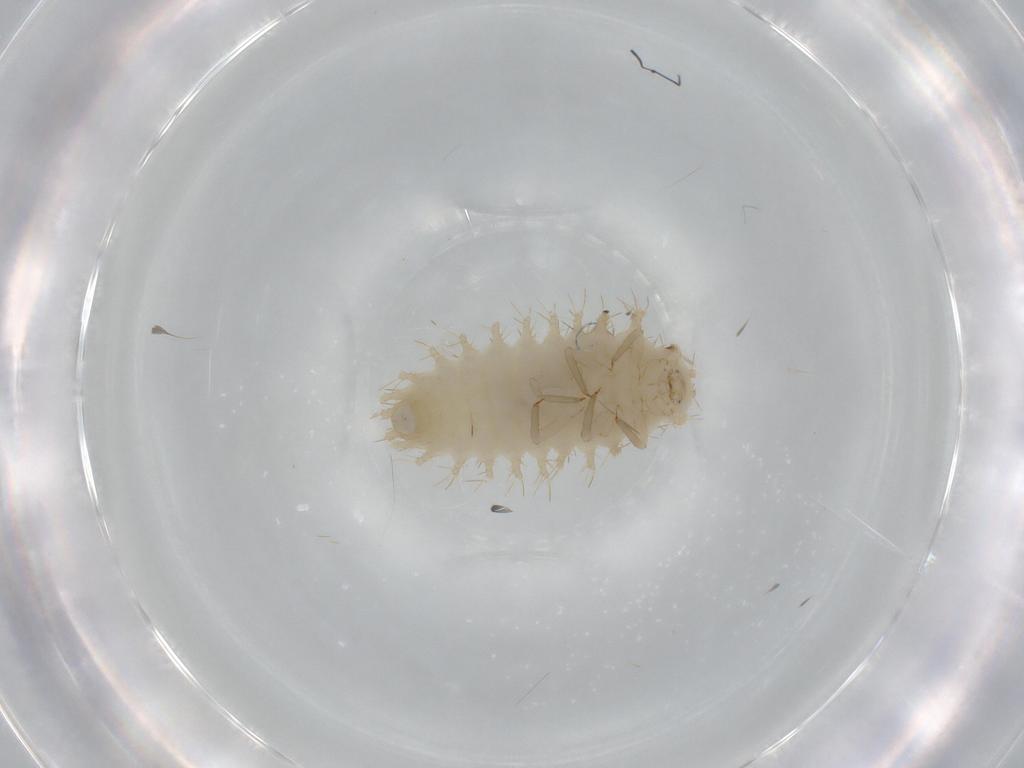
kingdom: Animalia
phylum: Arthropoda
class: Insecta
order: Coleoptera
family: Coccinellidae
